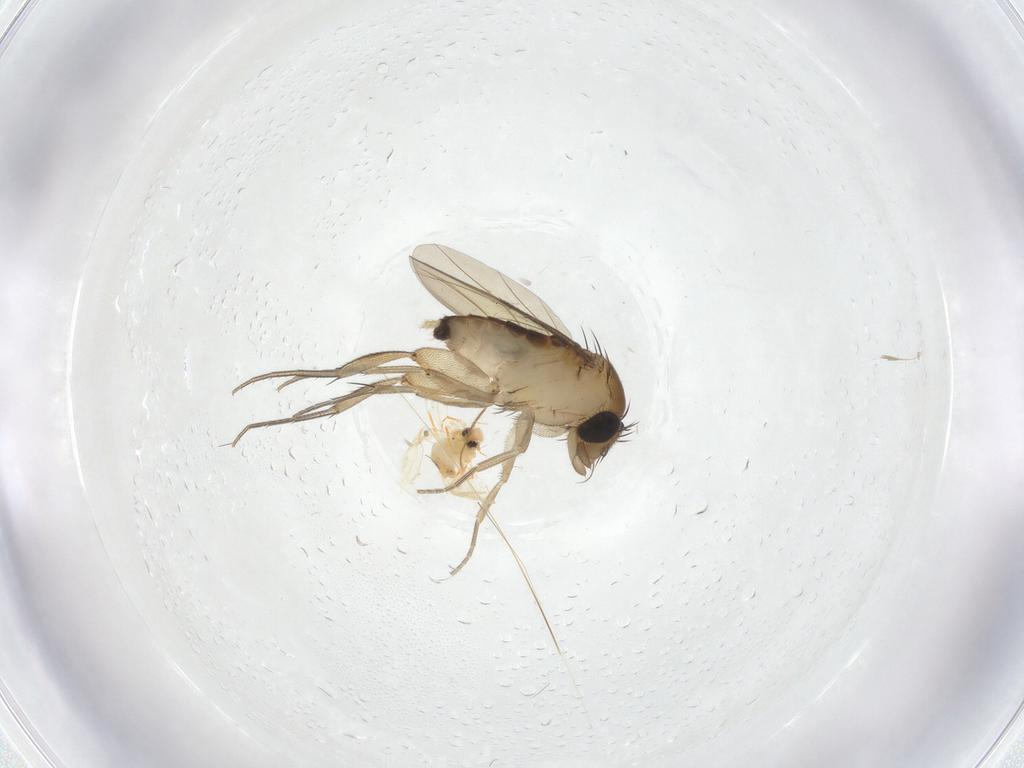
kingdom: Animalia
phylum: Arthropoda
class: Insecta
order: Diptera
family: Phoridae
